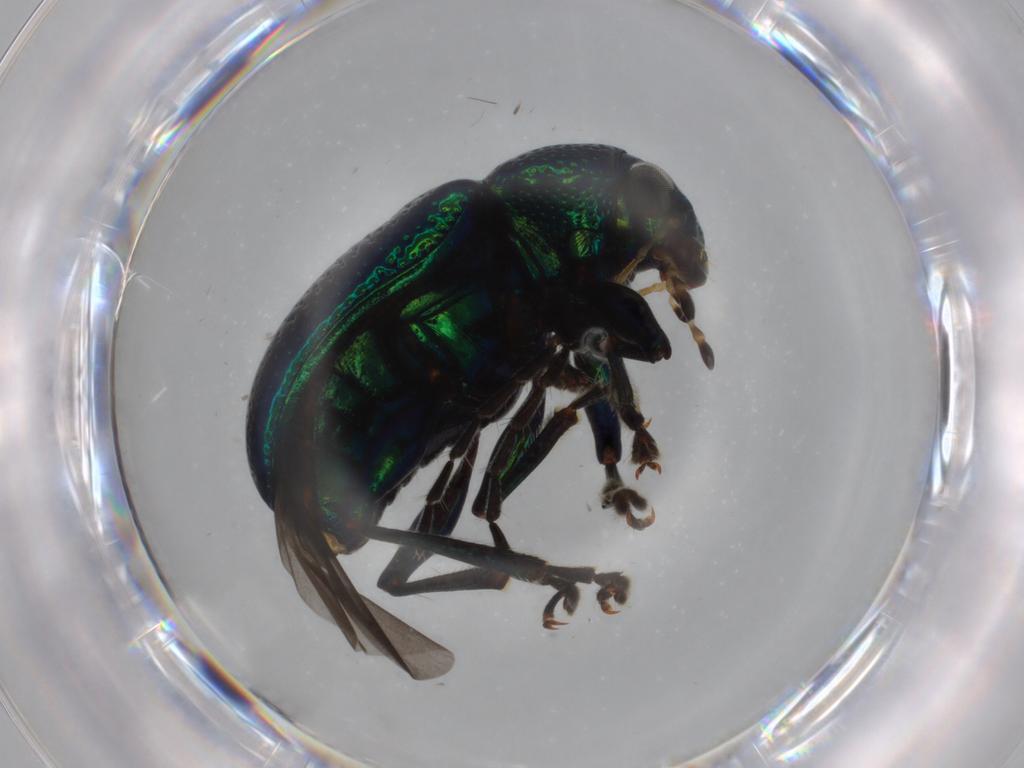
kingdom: Animalia
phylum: Arthropoda
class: Insecta
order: Coleoptera
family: Chrysomelidae
